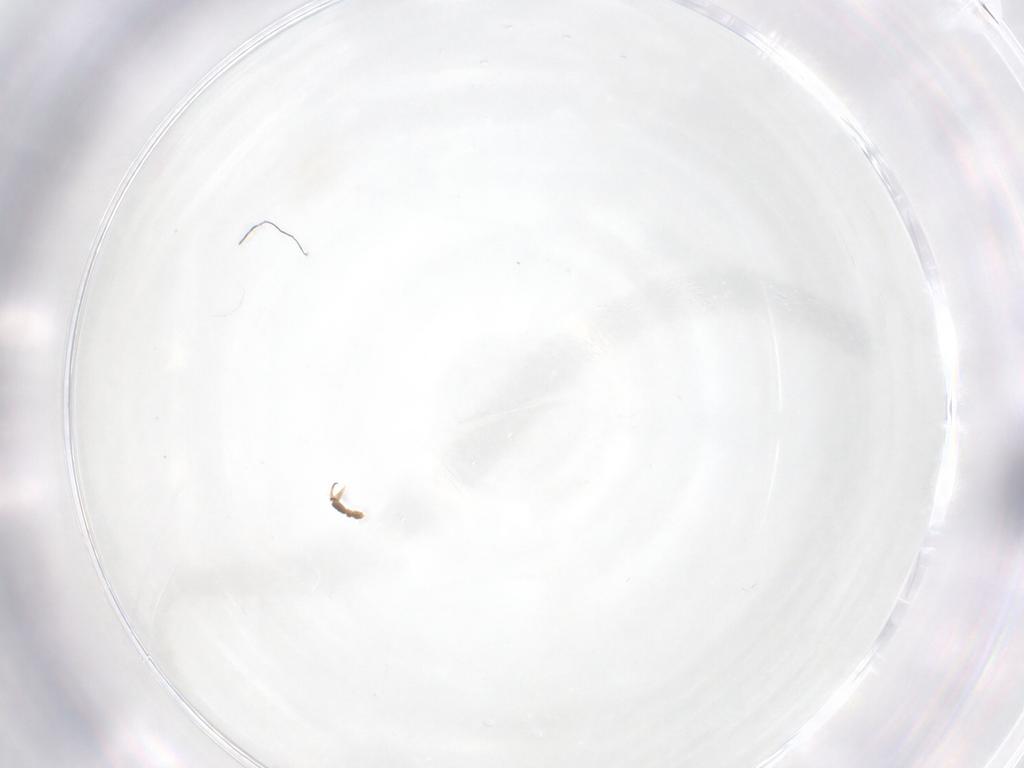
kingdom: Animalia
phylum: Arthropoda
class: Insecta
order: Diptera
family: Pipunculidae
